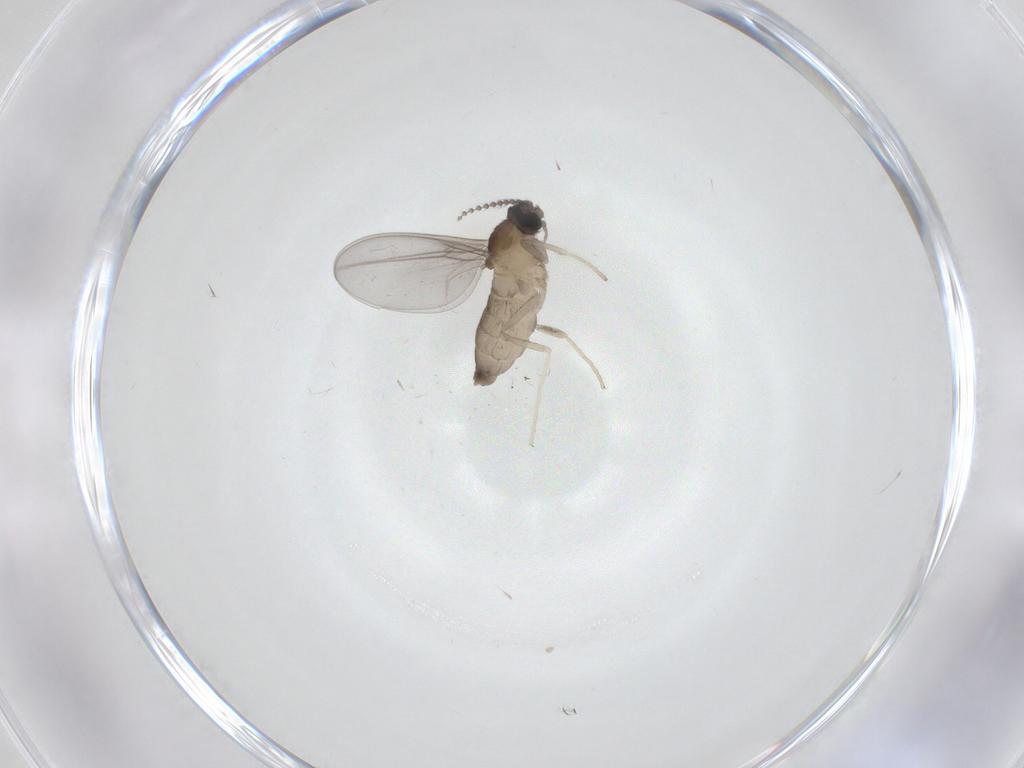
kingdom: Animalia
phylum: Arthropoda
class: Insecta
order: Diptera
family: Cecidomyiidae
